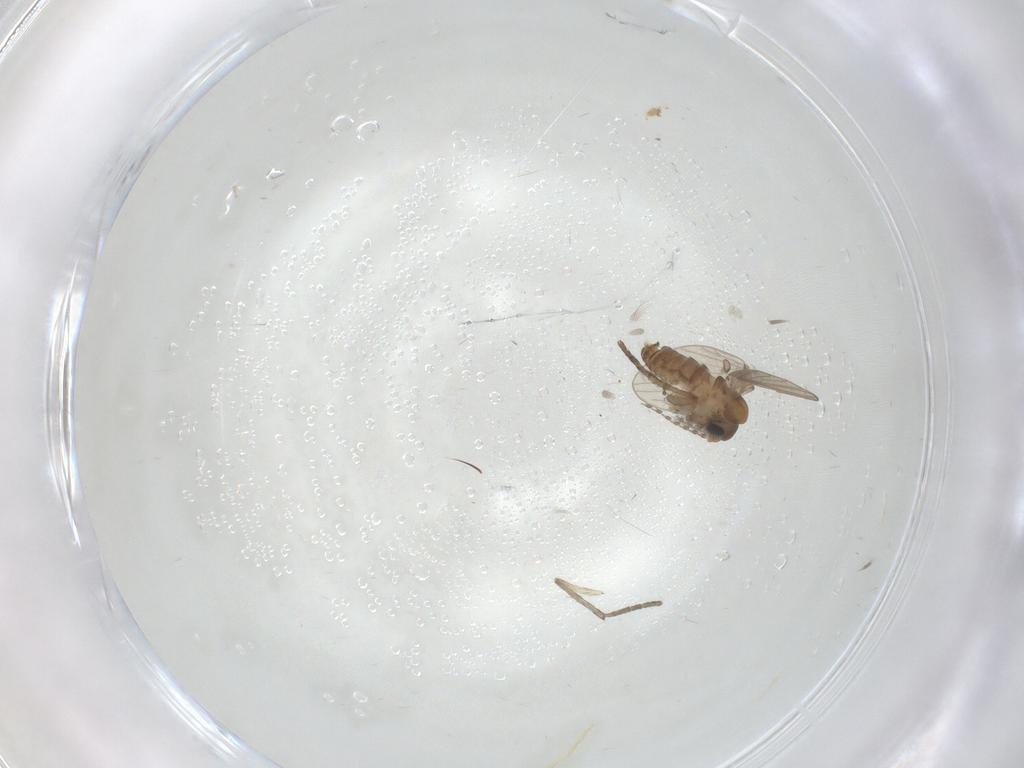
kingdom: Animalia
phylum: Arthropoda
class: Insecta
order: Diptera
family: Psychodidae
